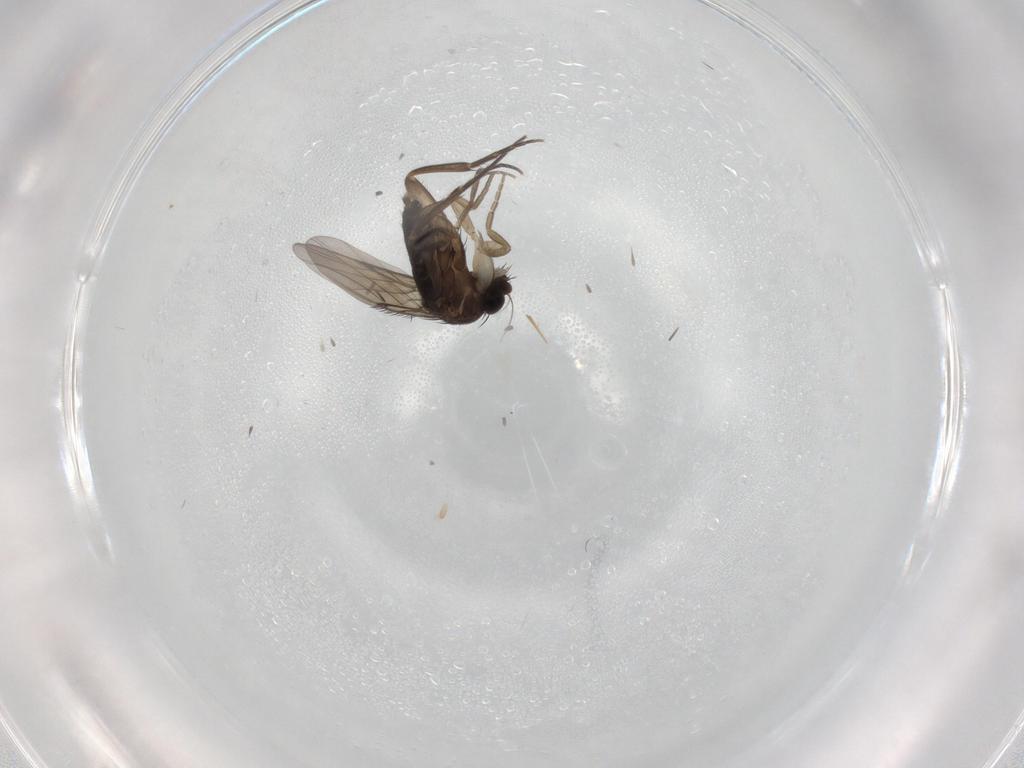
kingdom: Animalia
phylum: Arthropoda
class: Insecta
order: Diptera
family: Phoridae
